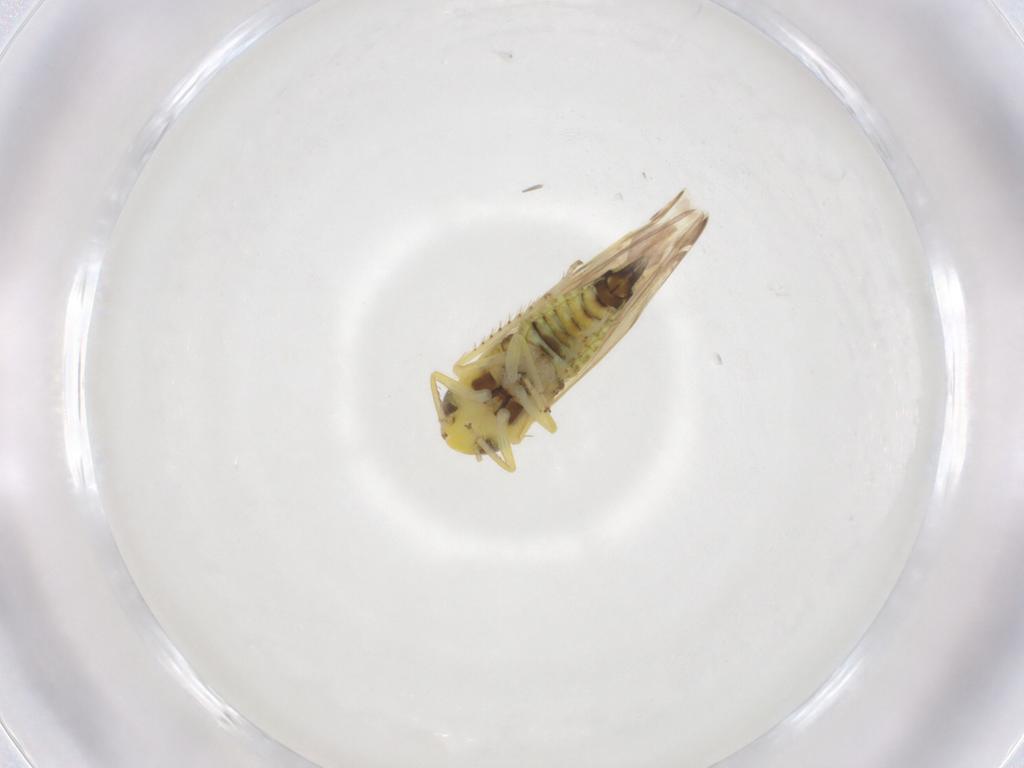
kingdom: Animalia
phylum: Arthropoda
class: Insecta
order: Hemiptera
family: Cicadellidae
